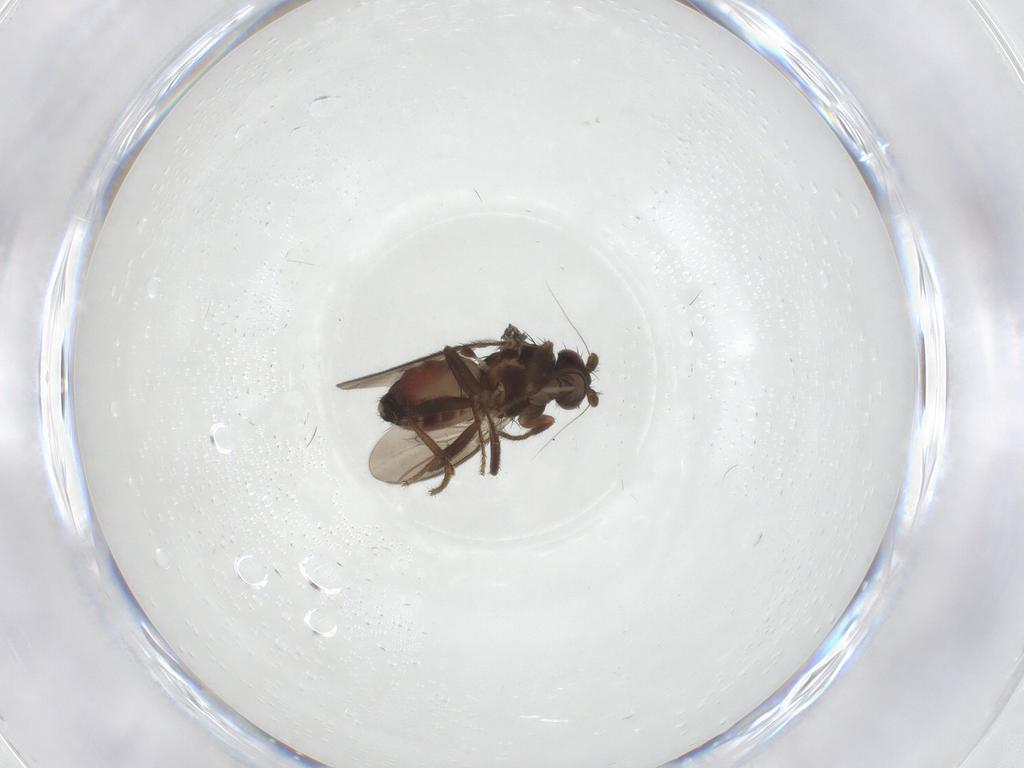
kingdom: Animalia
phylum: Arthropoda
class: Insecta
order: Diptera
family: Sphaeroceridae
